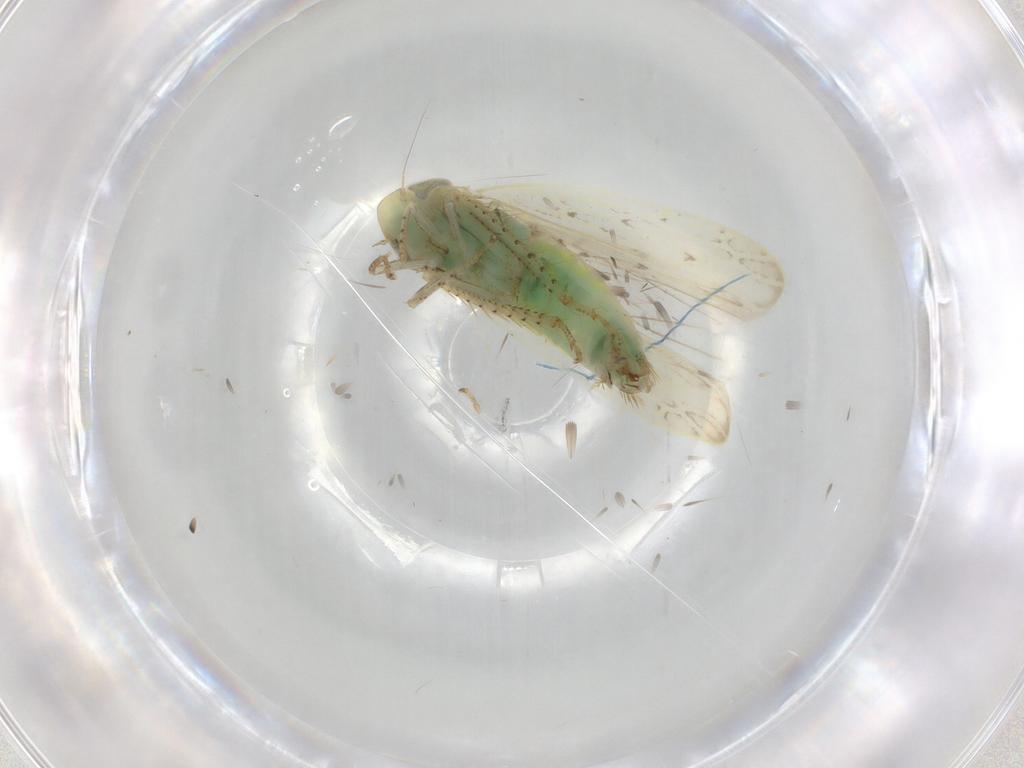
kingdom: Animalia
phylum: Arthropoda
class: Insecta
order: Hemiptera
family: Cicadellidae
